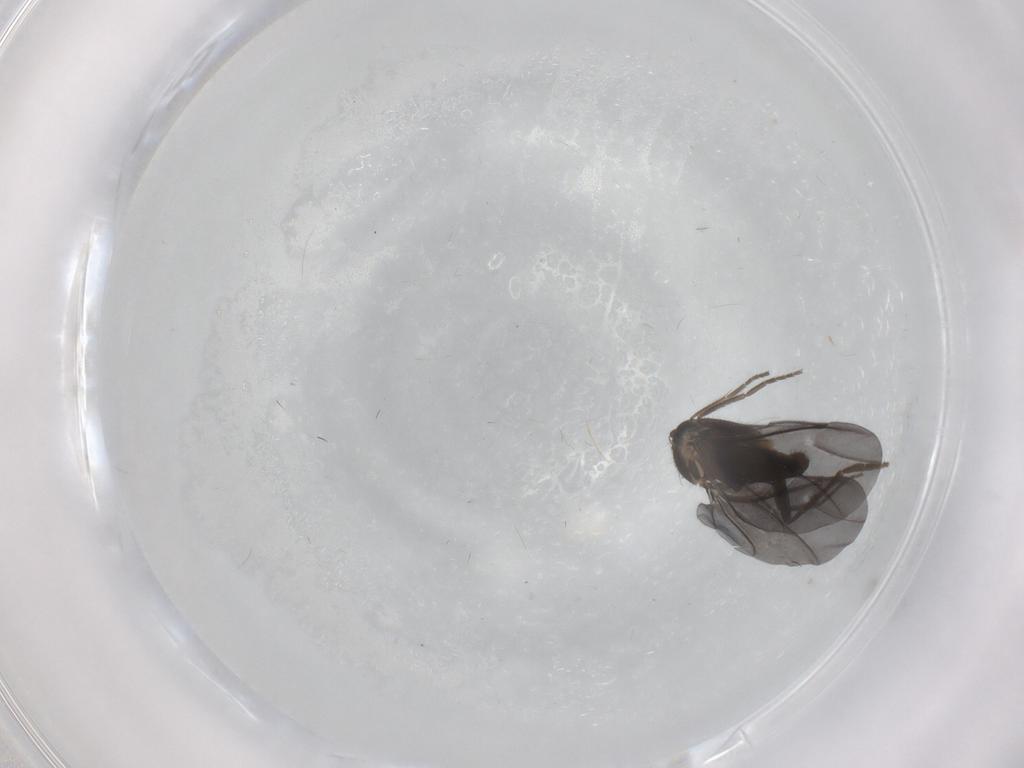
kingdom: Animalia
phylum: Arthropoda
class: Insecta
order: Diptera
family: Phoridae
